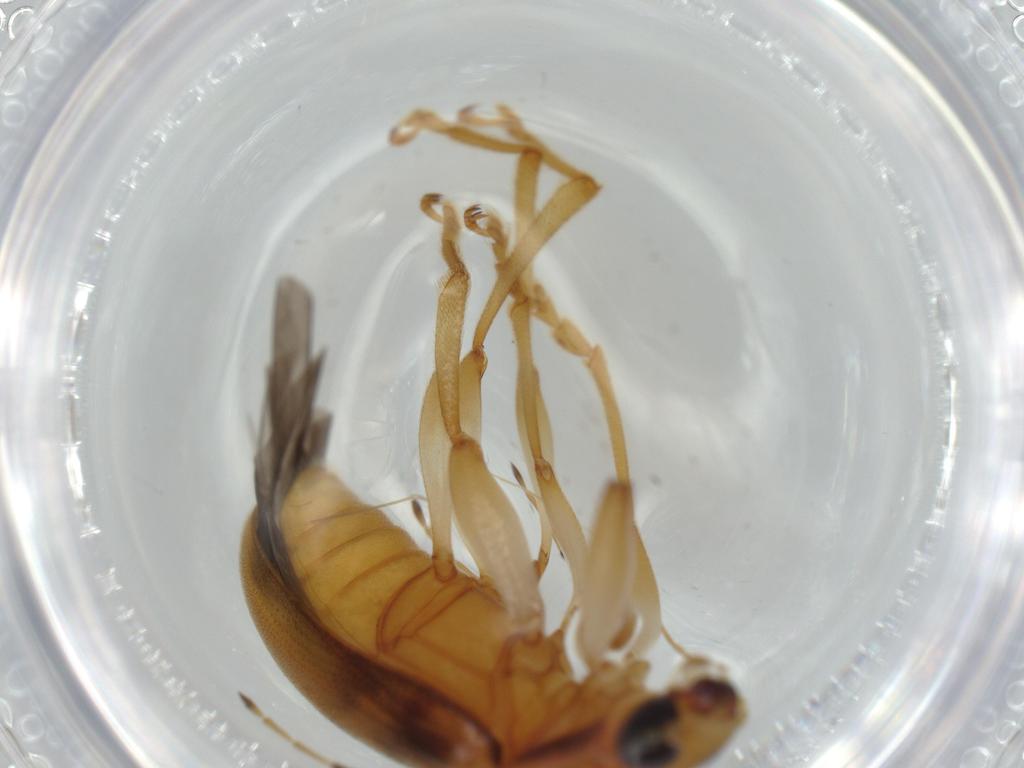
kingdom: Animalia
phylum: Arthropoda
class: Insecta
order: Coleoptera
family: Chrysomelidae
